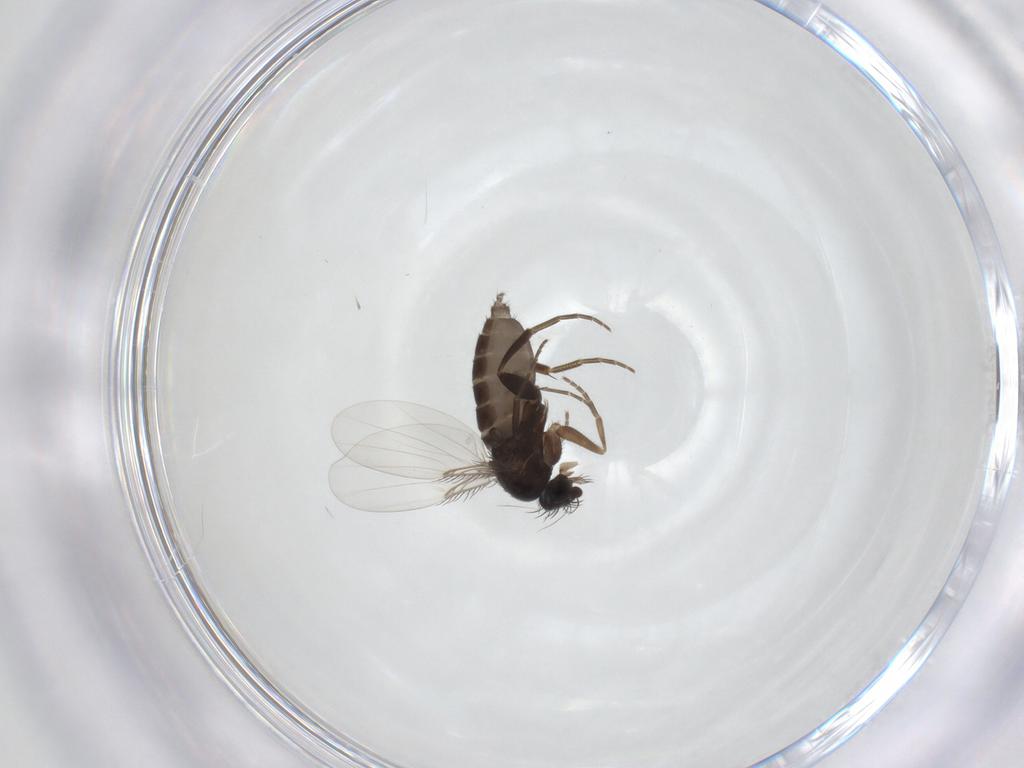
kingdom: Animalia
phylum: Arthropoda
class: Insecta
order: Diptera
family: Phoridae
